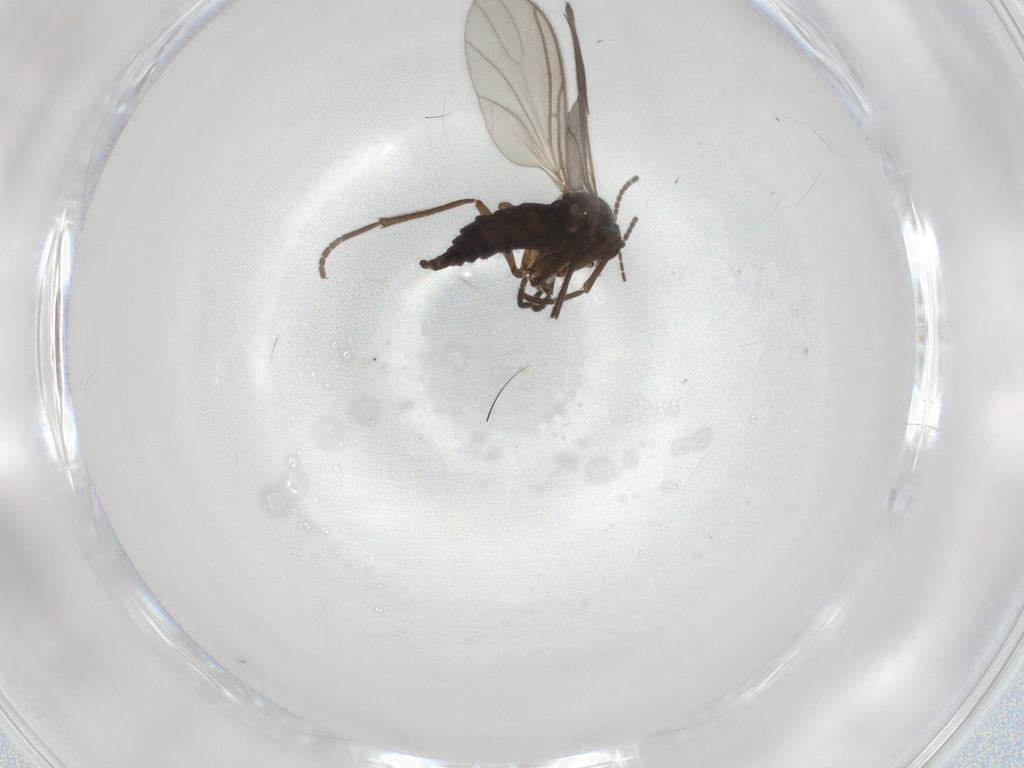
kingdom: Animalia
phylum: Arthropoda
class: Insecta
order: Diptera
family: Sciaridae
